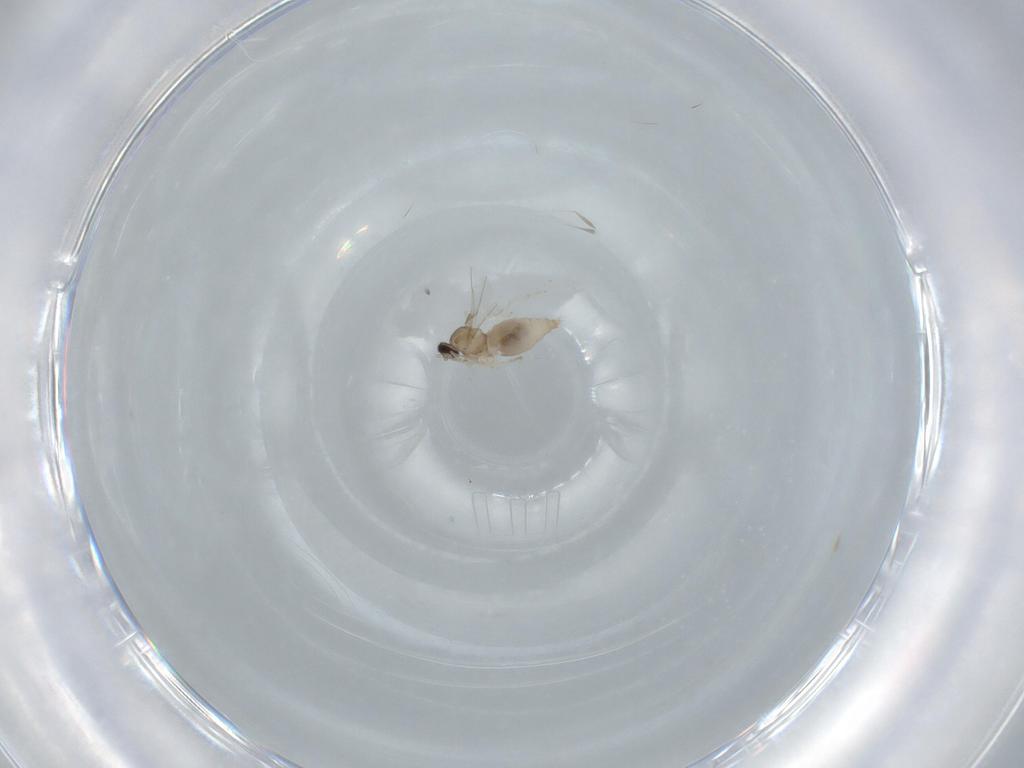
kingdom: Animalia
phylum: Arthropoda
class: Insecta
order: Diptera
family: Cecidomyiidae
